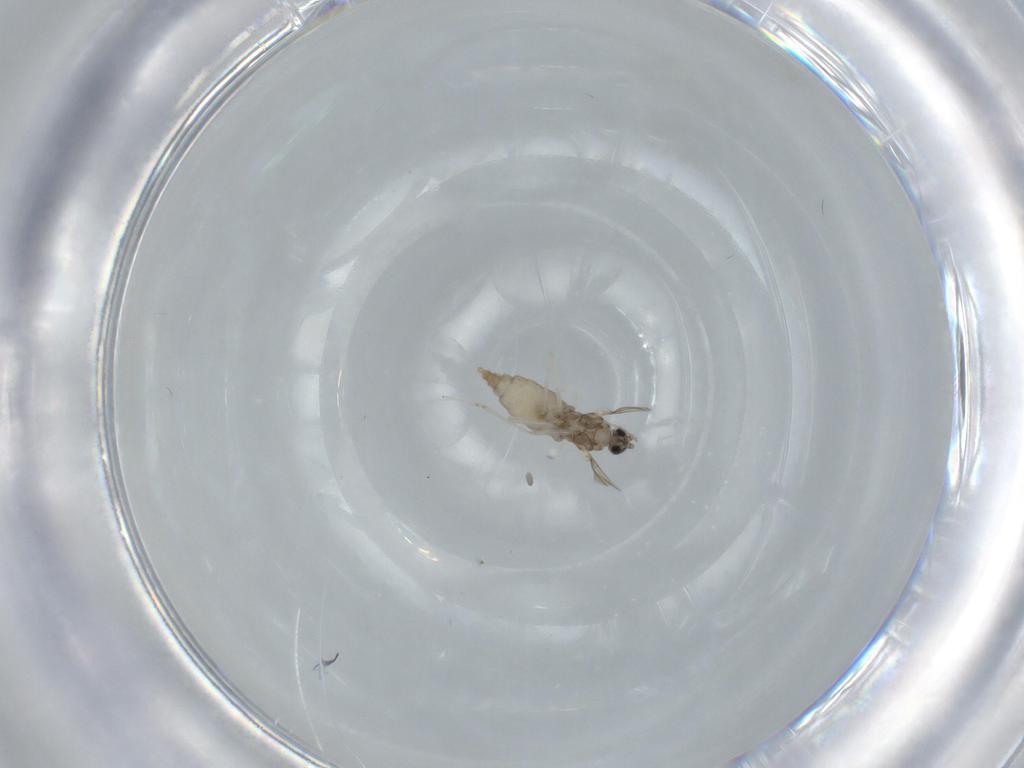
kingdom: Animalia
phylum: Arthropoda
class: Insecta
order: Diptera
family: Cecidomyiidae
